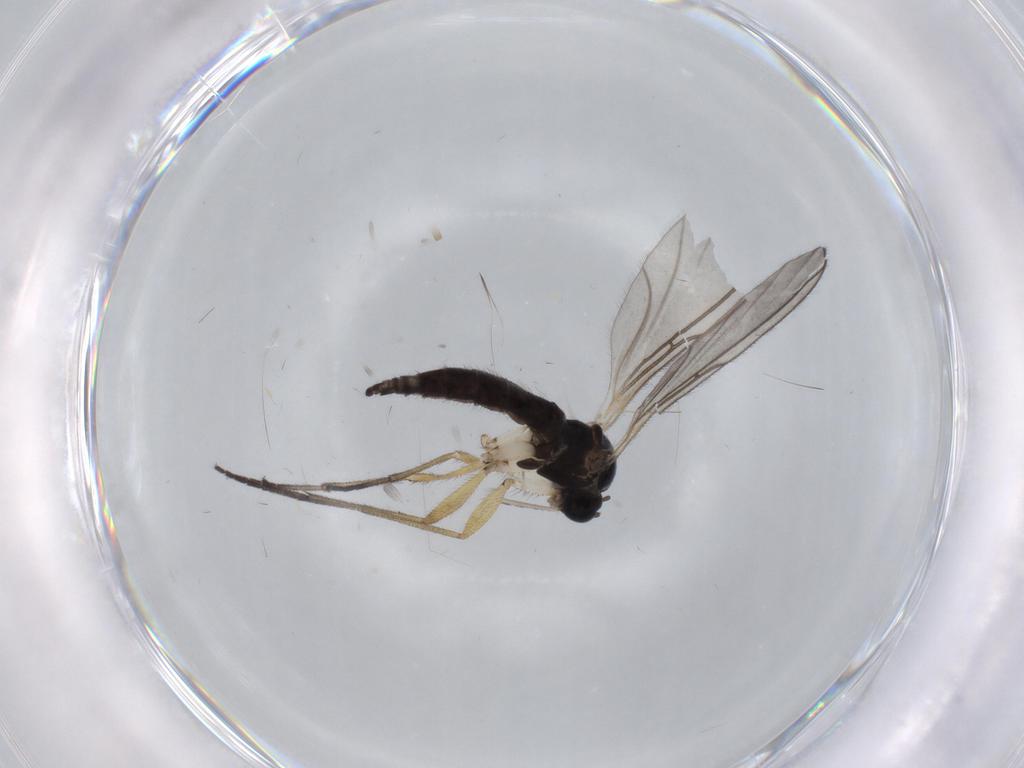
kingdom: Animalia
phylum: Arthropoda
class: Insecta
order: Diptera
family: Sciaridae
